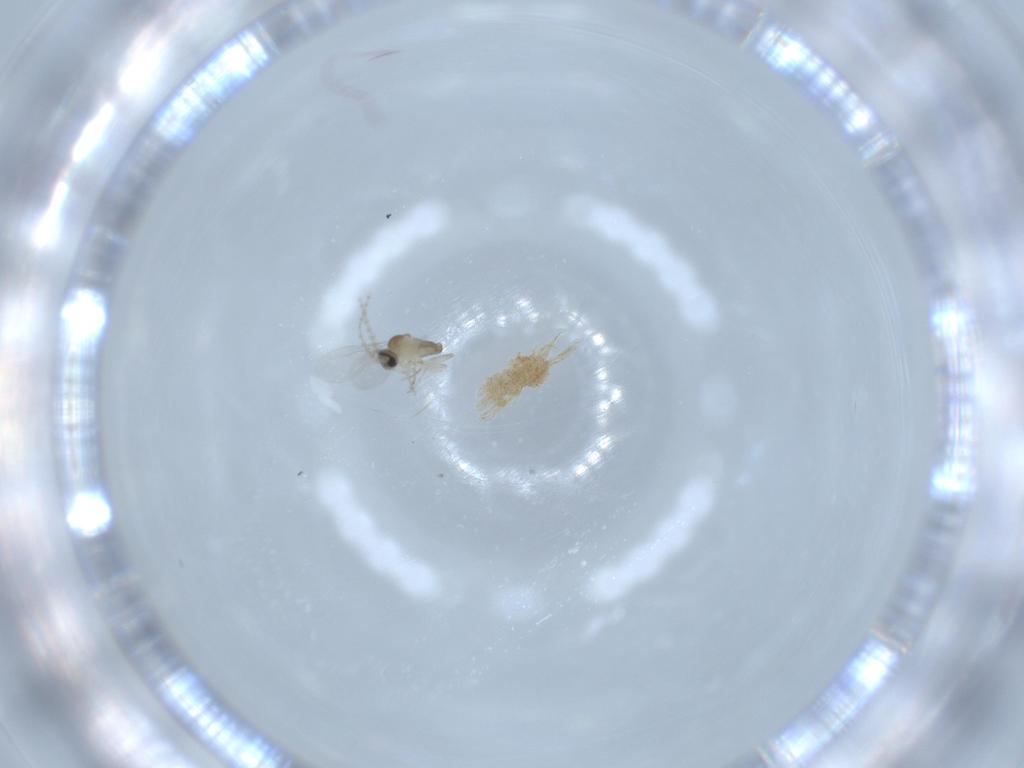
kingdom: Animalia
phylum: Arthropoda
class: Insecta
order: Diptera
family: Cecidomyiidae
